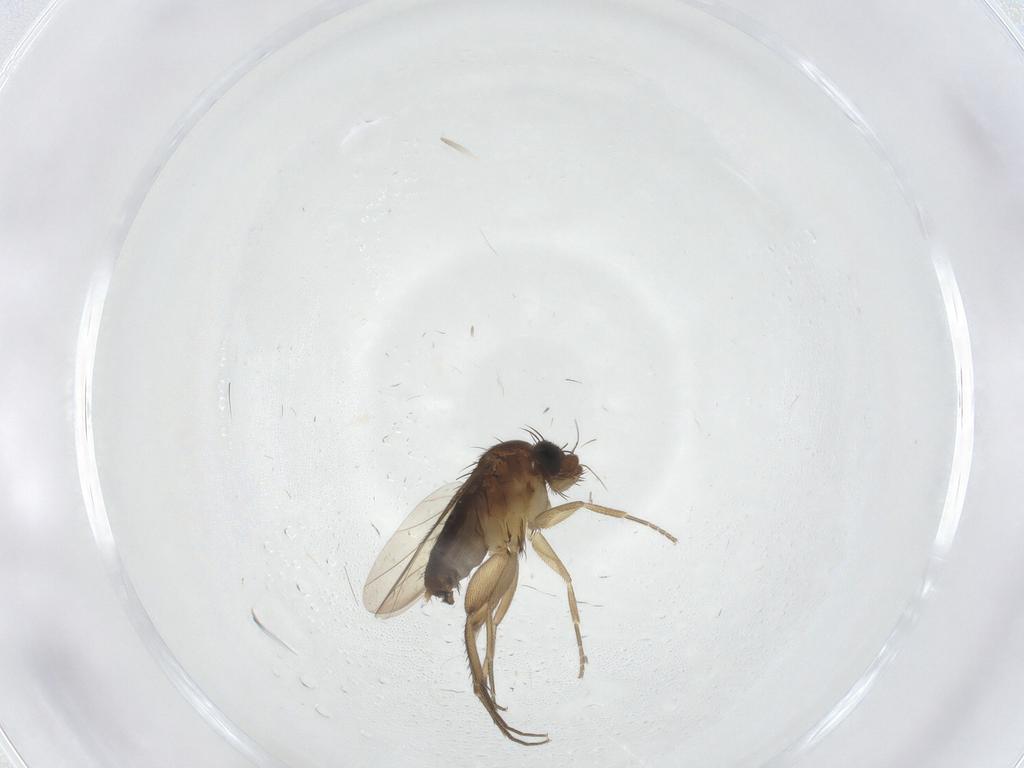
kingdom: Animalia
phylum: Arthropoda
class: Insecta
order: Diptera
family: Phoridae
